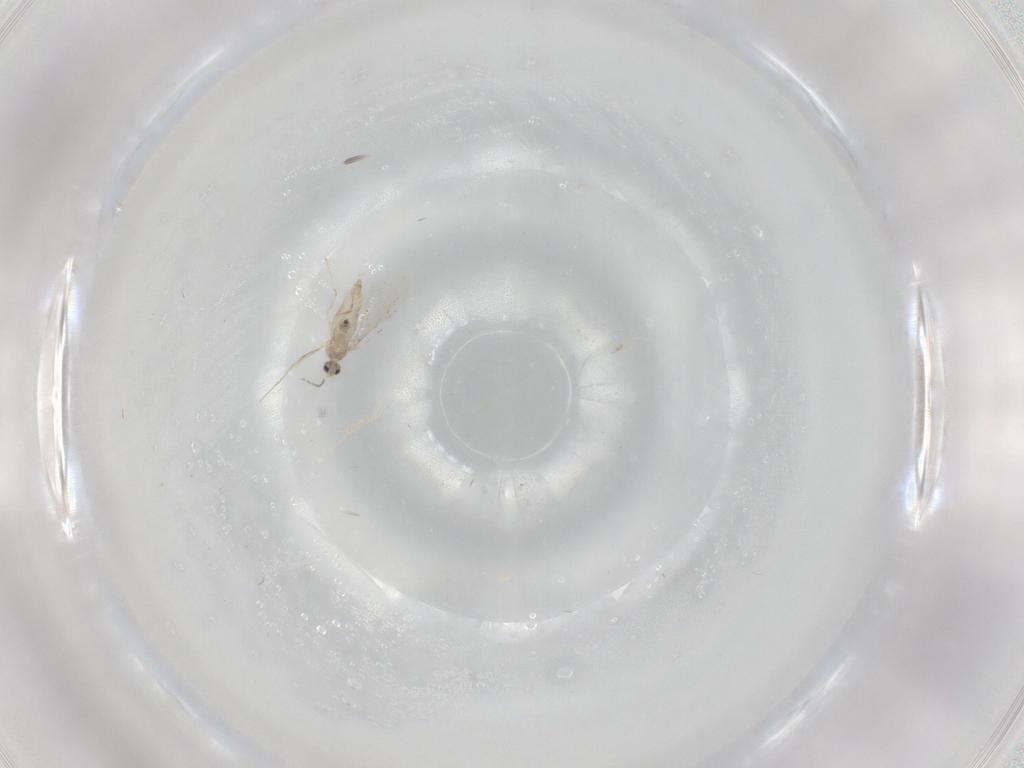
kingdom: Animalia
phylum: Arthropoda
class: Insecta
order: Diptera
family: Cecidomyiidae
